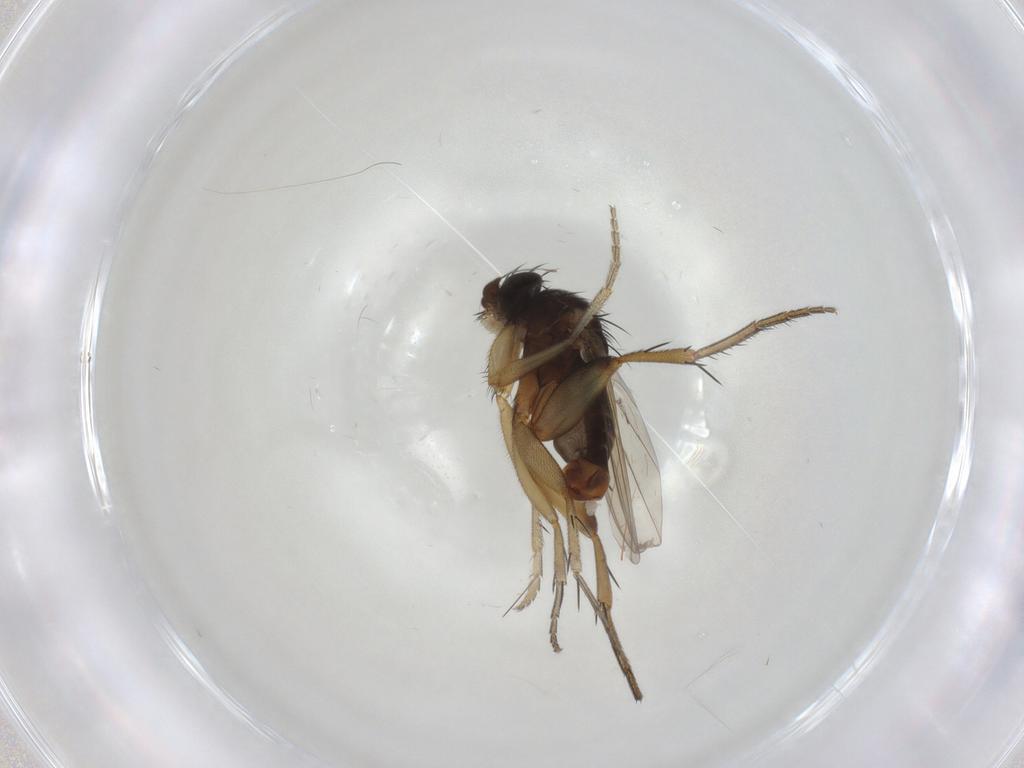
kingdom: Animalia
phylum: Arthropoda
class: Insecta
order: Diptera
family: Phoridae
